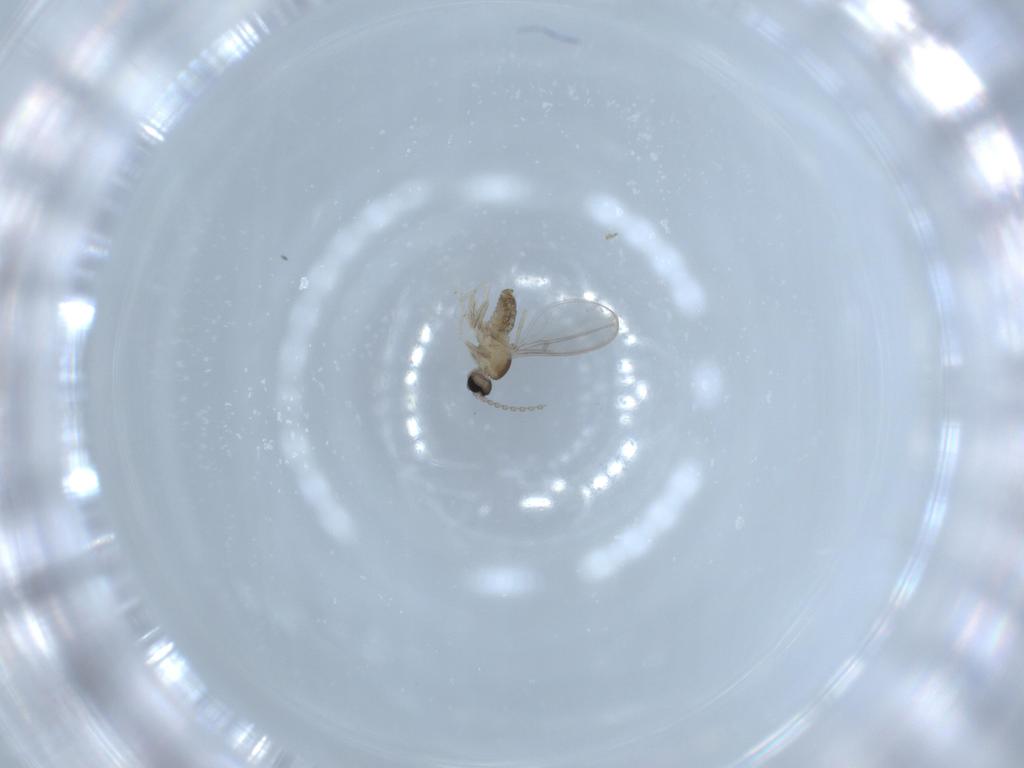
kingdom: Animalia
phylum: Arthropoda
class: Insecta
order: Diptera
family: Cecidomyiidae
